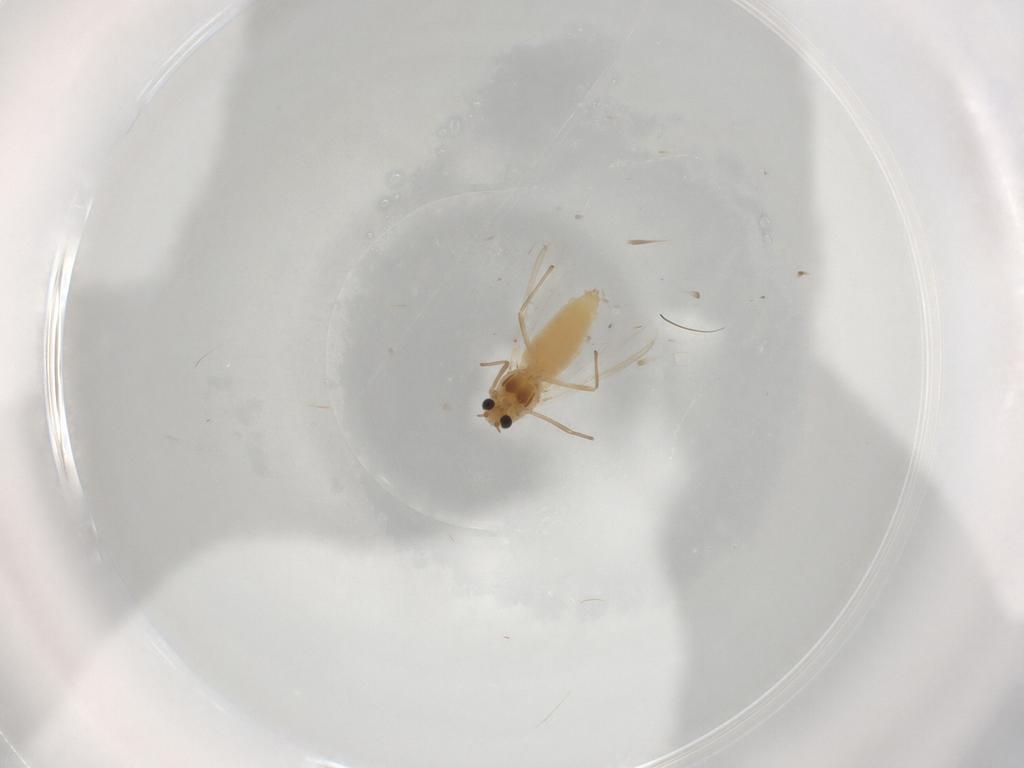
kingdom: Animalia
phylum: Arthropoda
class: Insecta
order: Diptera
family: Chironomidae
